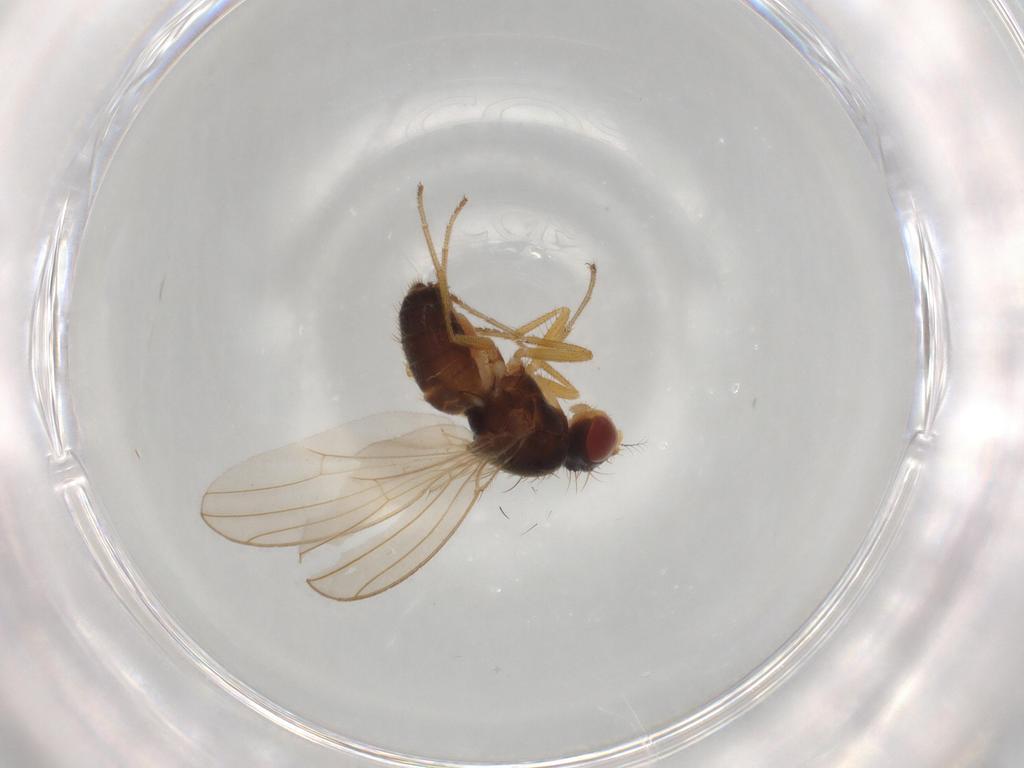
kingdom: Animalia
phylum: Arthropoda
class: Insecta
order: Diptera
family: Drosophilidae
